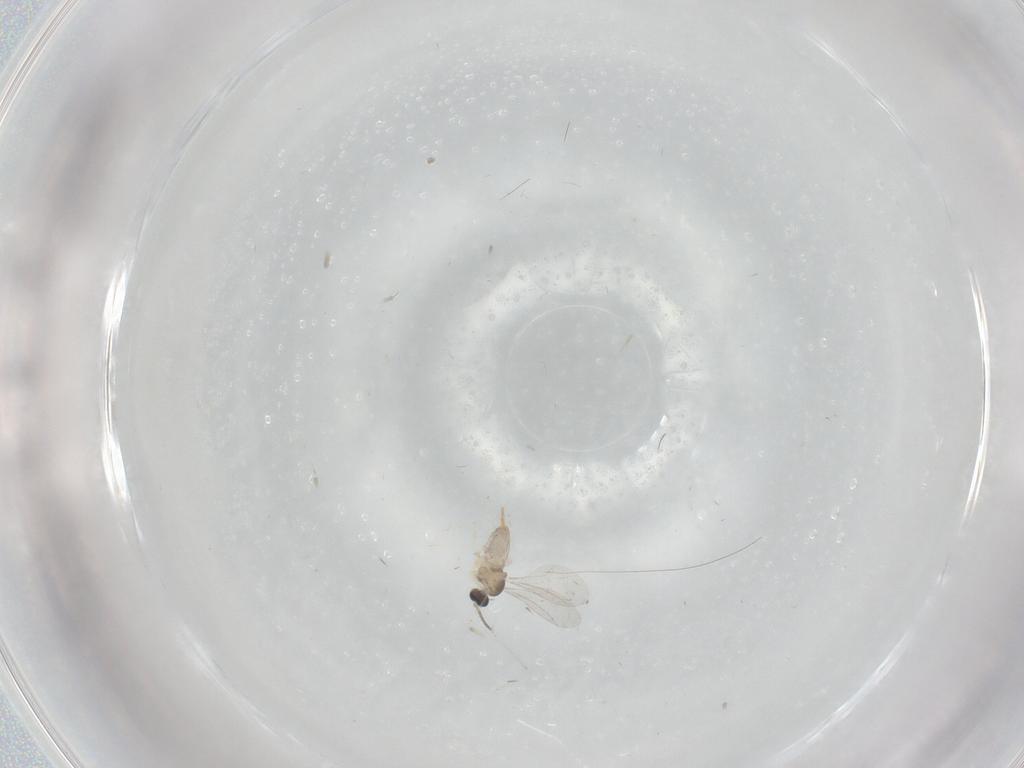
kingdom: Animalia
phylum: Arthropoda
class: Insecta
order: Diptera
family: Cecidomyiidae
